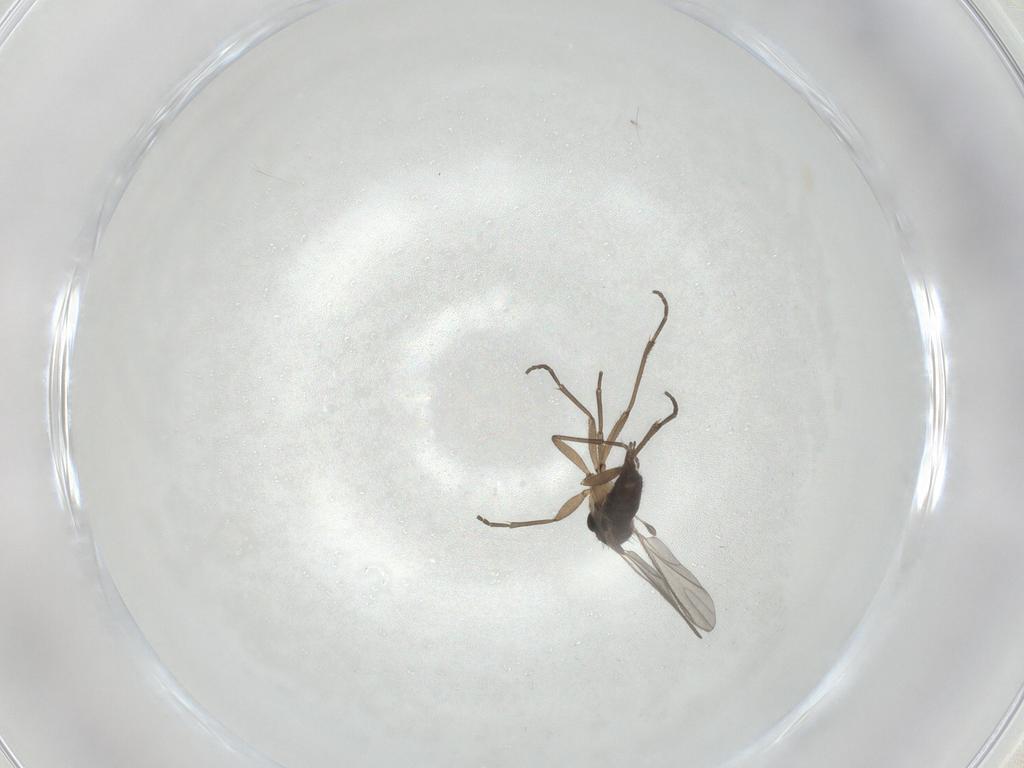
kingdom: Animalia
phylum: Arthropoda
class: Insecta
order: Diptera
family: Sciaridae
